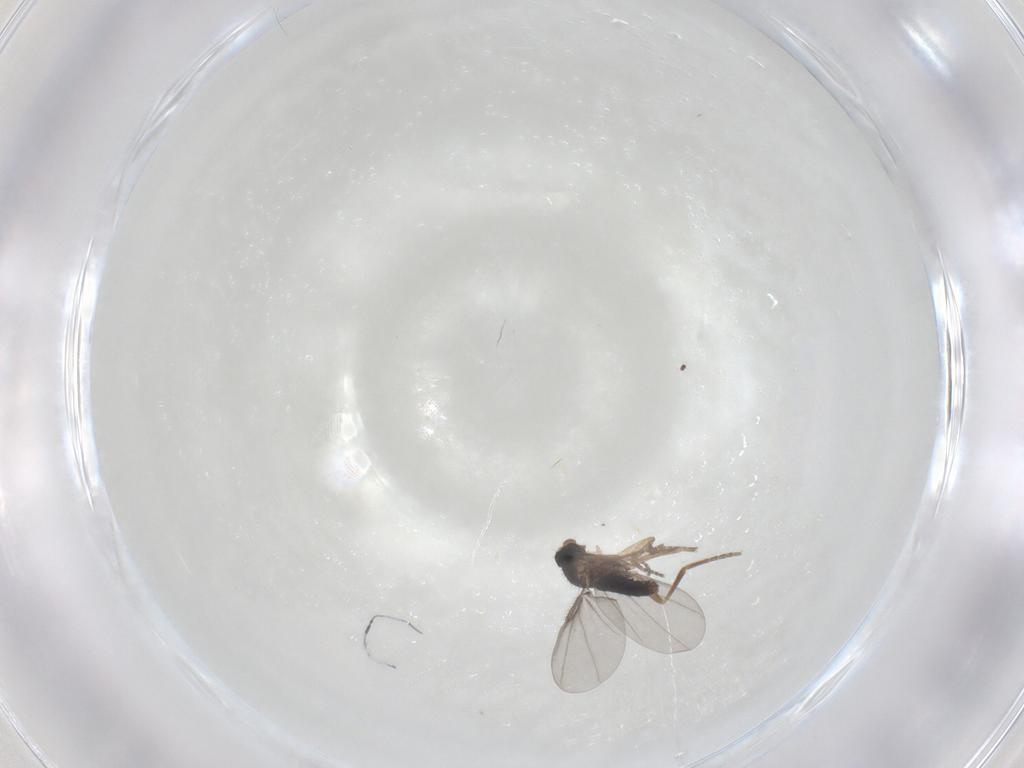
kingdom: Animalia
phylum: Arthropoda
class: Insecta
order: Diptera
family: Phoridae
